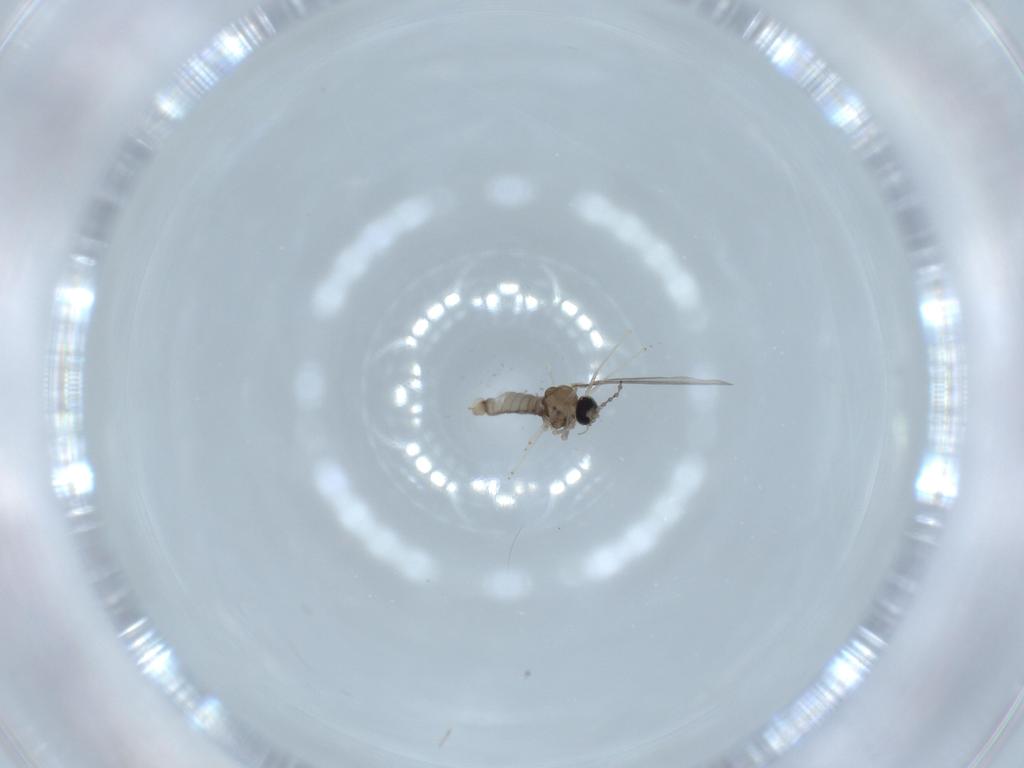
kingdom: Animalia
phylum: Arthropoda
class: Insecta
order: Diptera
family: Cecidomyiidae
